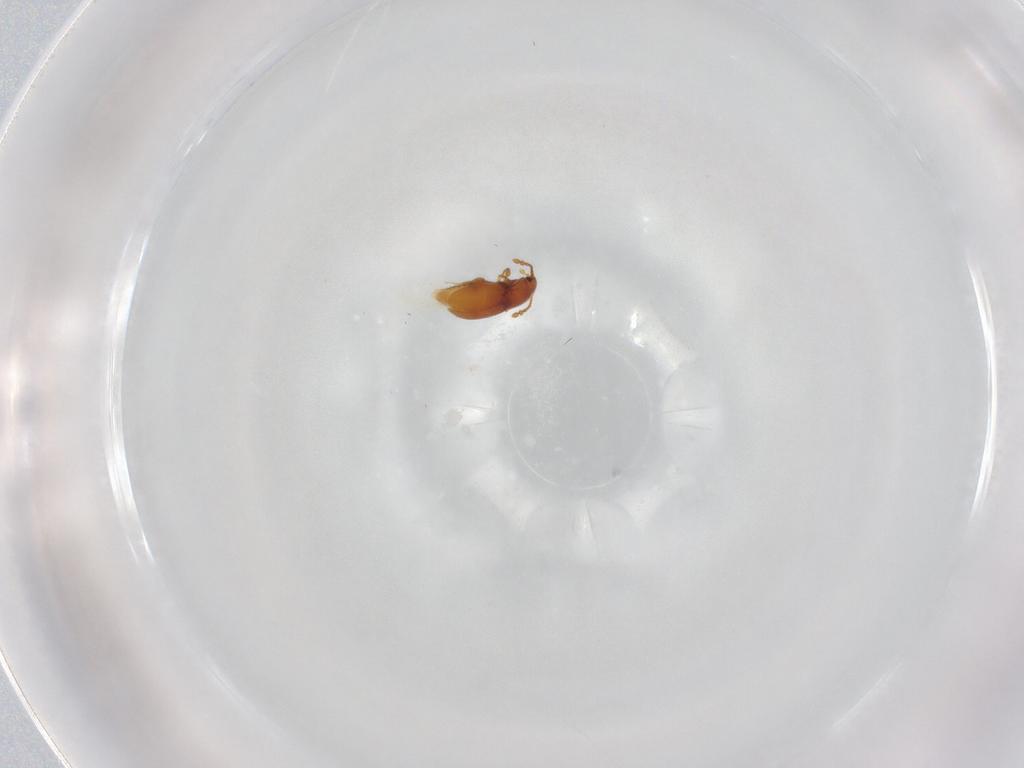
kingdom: Animalia
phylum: Arthropoda
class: Insecta
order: Coleoptera
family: Staphylinidae
